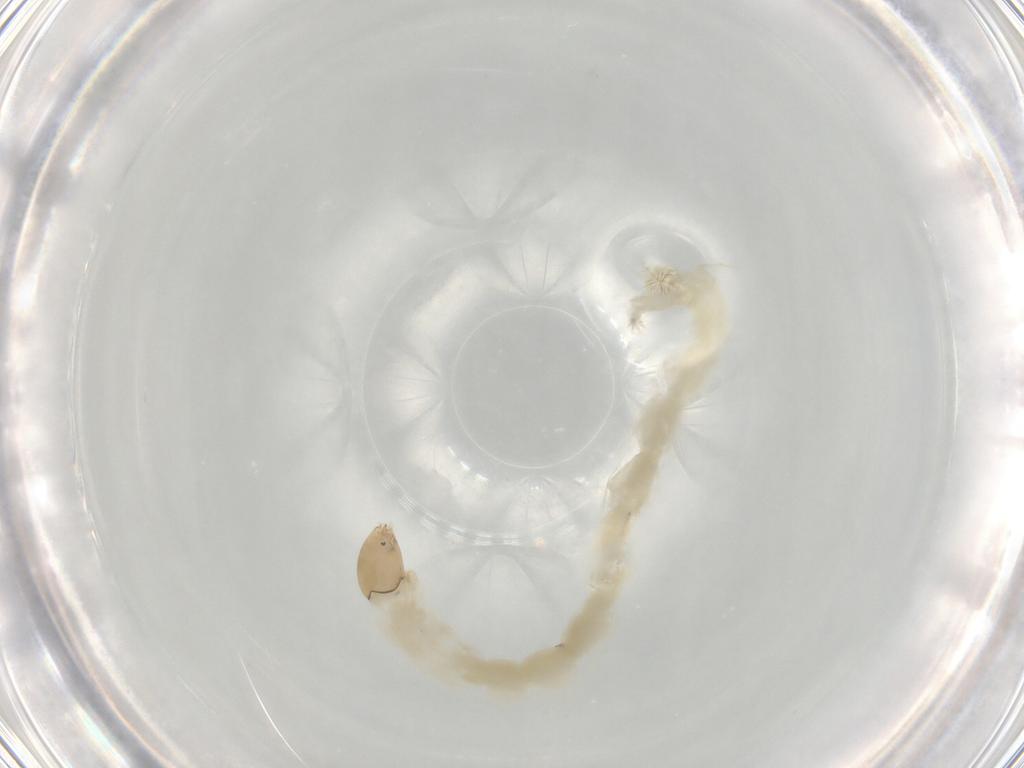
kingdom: Animalia
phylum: Arthropoda
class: Insecta
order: Diptera
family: Chironomidae
